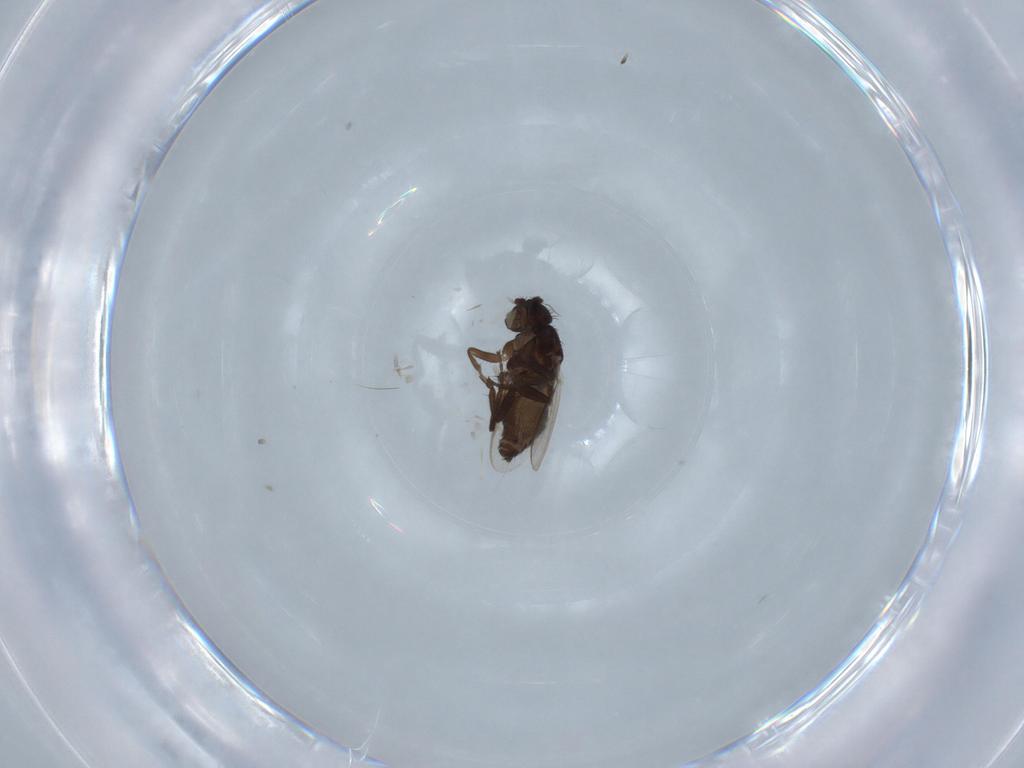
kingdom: Animalia
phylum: Arthropoda
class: Insecta
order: Diptera
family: Sphaeroceridae
